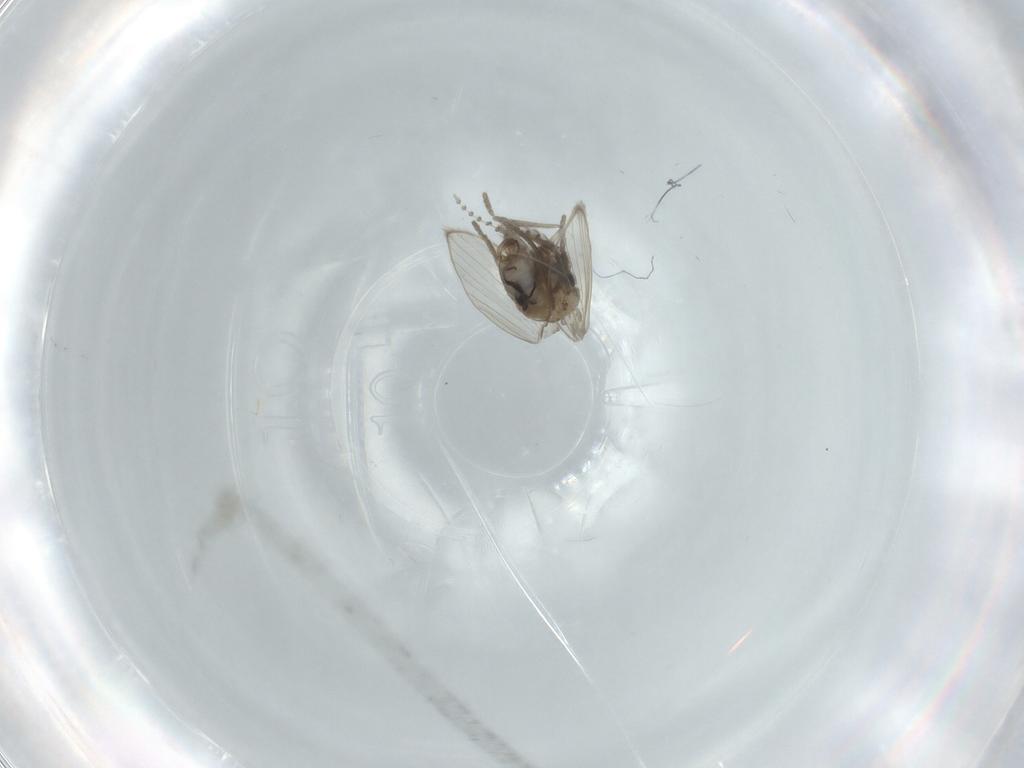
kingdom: Animalia
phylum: Arthropoda
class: Insecta
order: Diptera
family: Psychodidae
